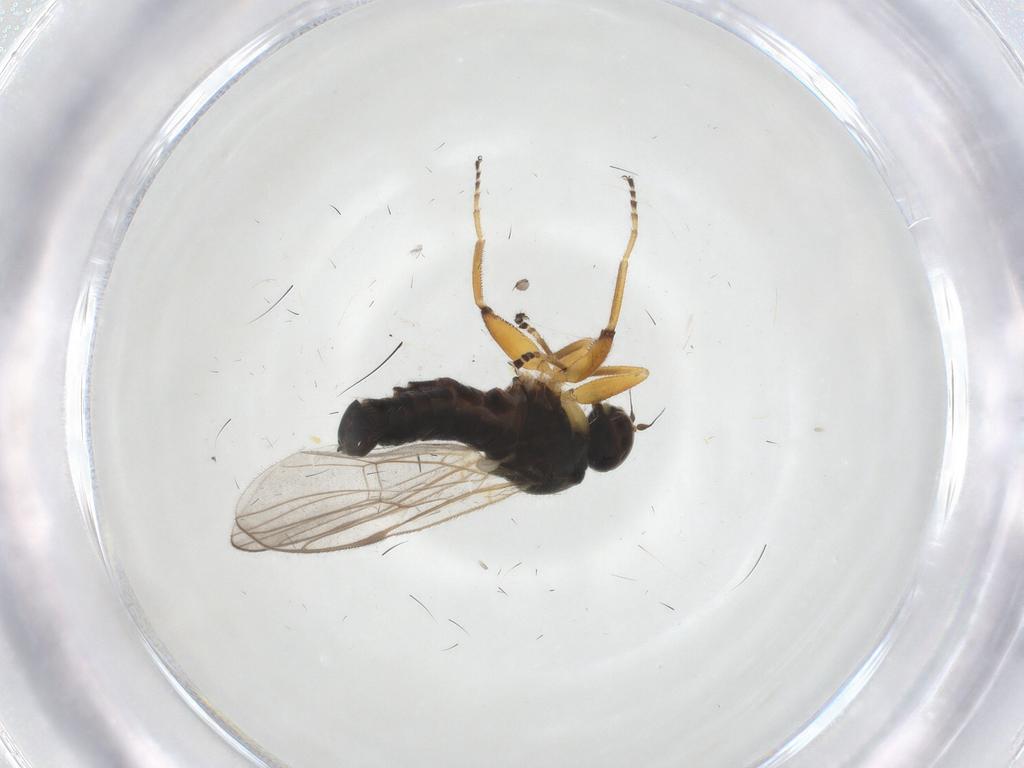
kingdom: Animalia
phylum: Arthropoda
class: Insecta
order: Diptera
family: Hybotidae
